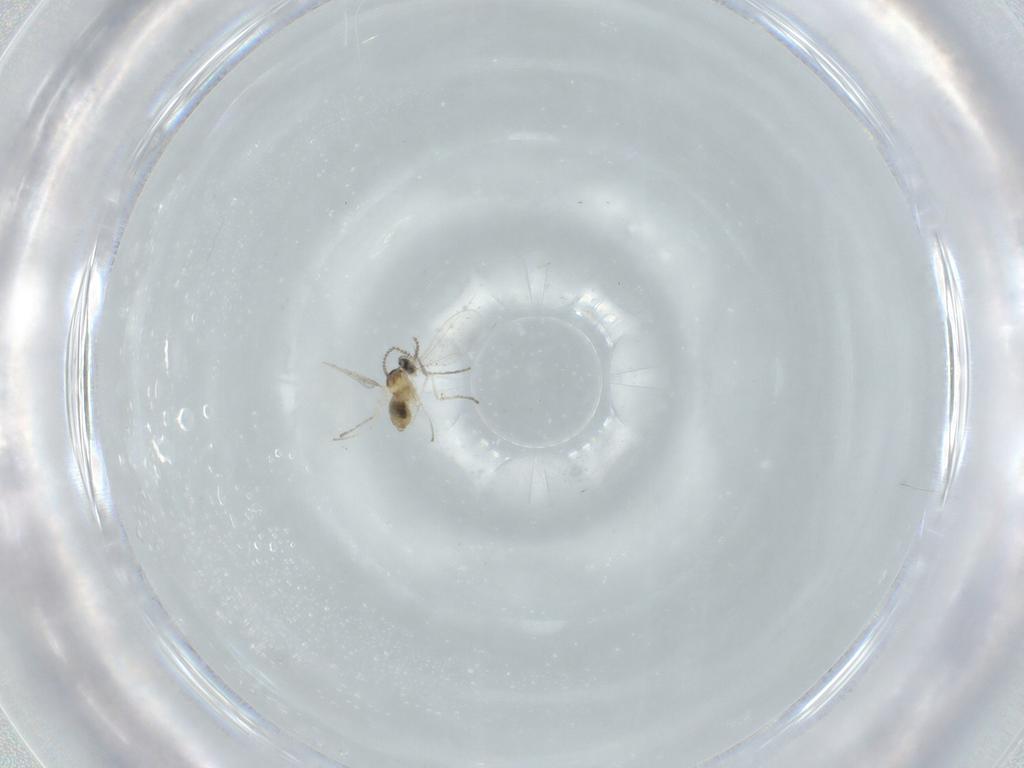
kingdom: Animalia
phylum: Arthropoda
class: Insecta
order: Diptera
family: Cecidomyiidae
